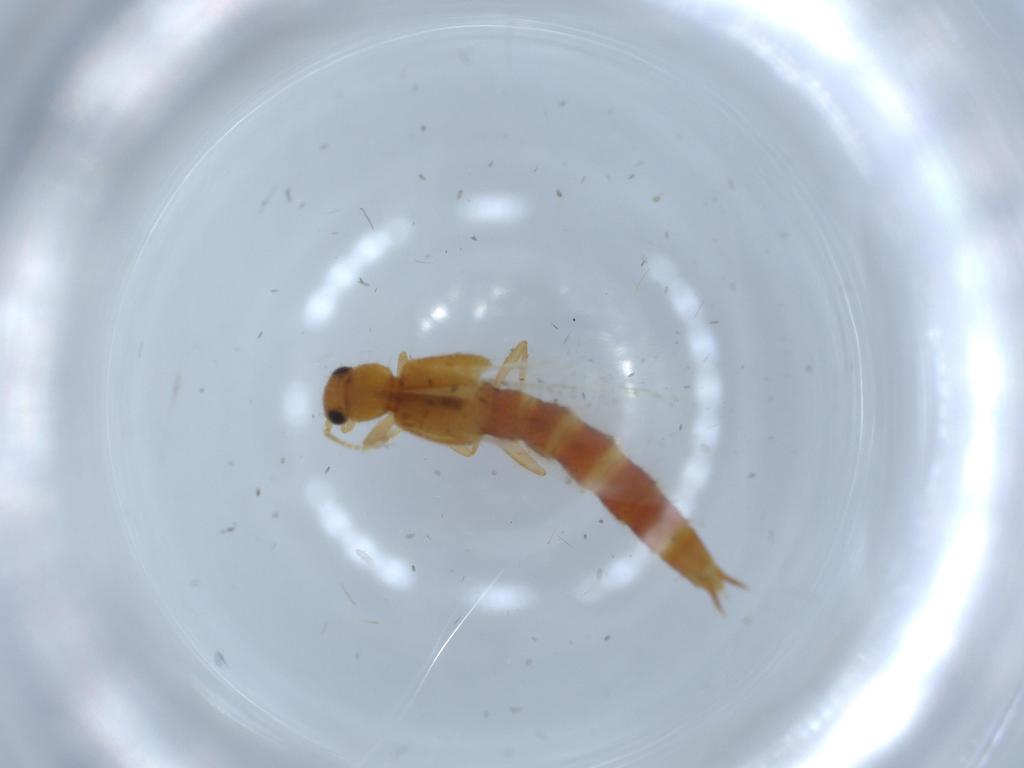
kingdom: Animalia
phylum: Arthropoda
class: Insecta
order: Coleoptera
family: Staphylinidae
